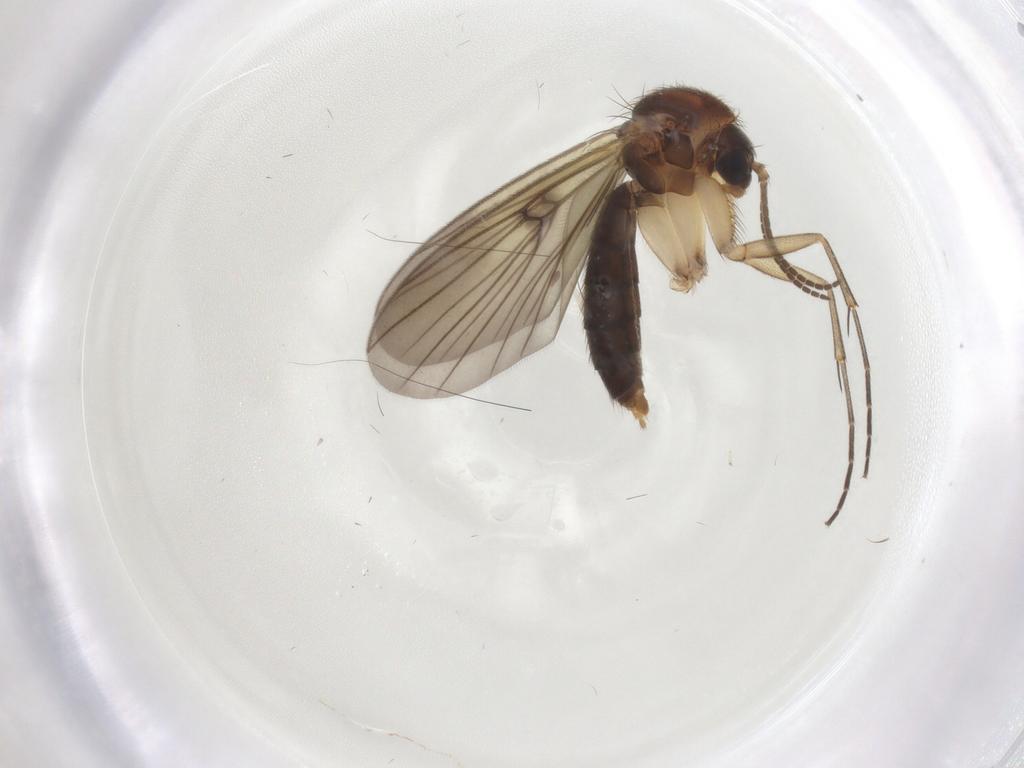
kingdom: Animalia
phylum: Arthropoda
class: Insecta
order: Diptera
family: Mycetophilidae
